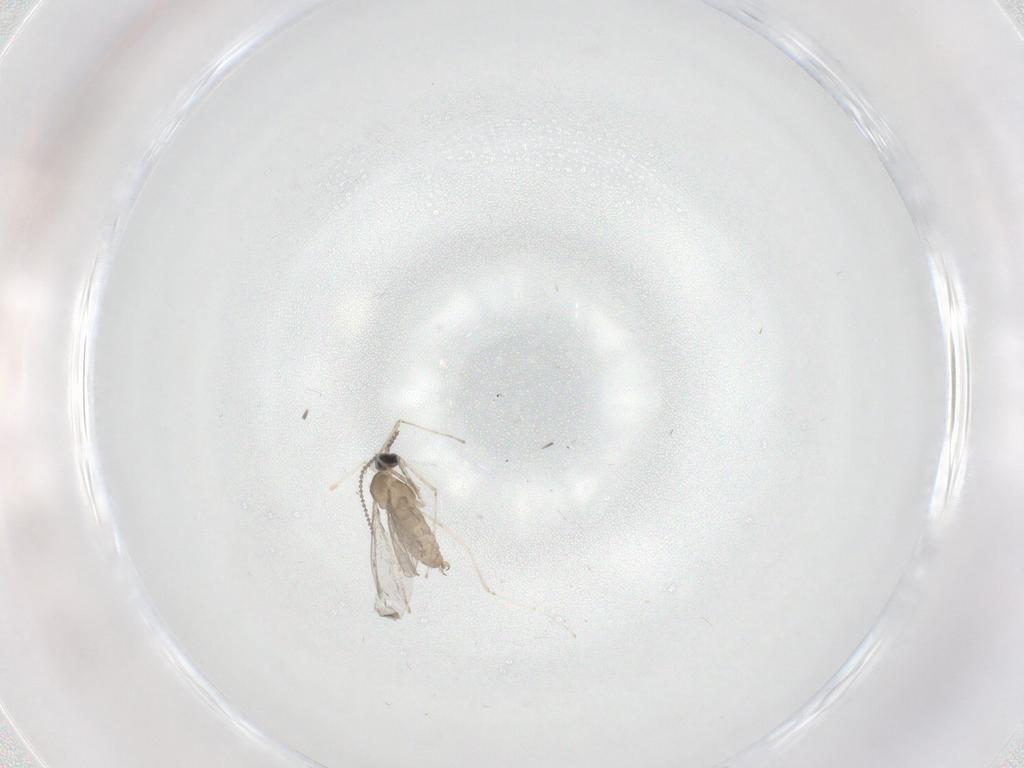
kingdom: Animalia
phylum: Arthropoda
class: Insecta
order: Diptera
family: Cecidomyiidae
